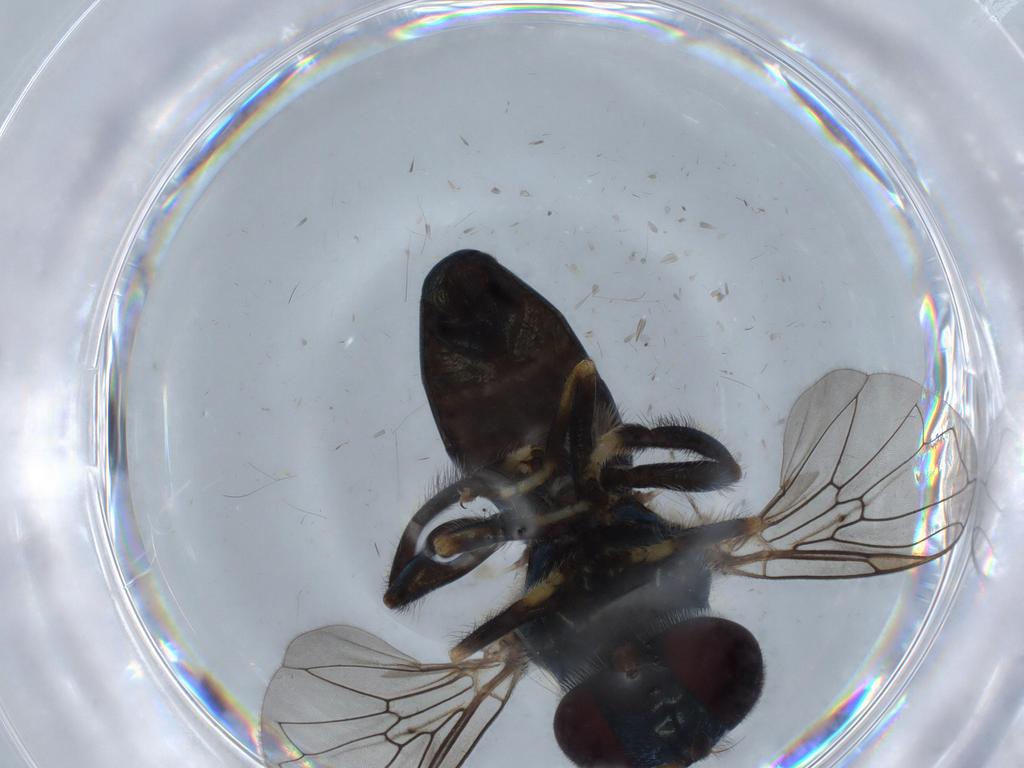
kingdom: Animalia
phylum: Arthropoda
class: Insecta
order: Diptera
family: Syrphidae
